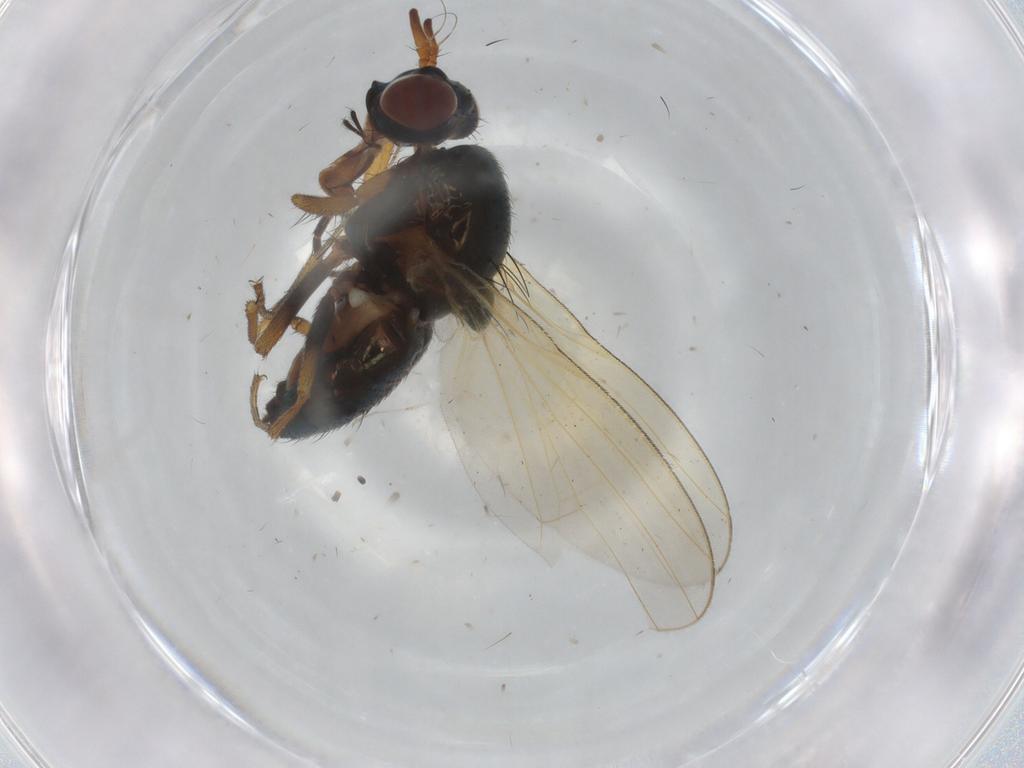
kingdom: Animalia
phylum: Arthropoda
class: Insecta
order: Diptera
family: Lauxaniidae
